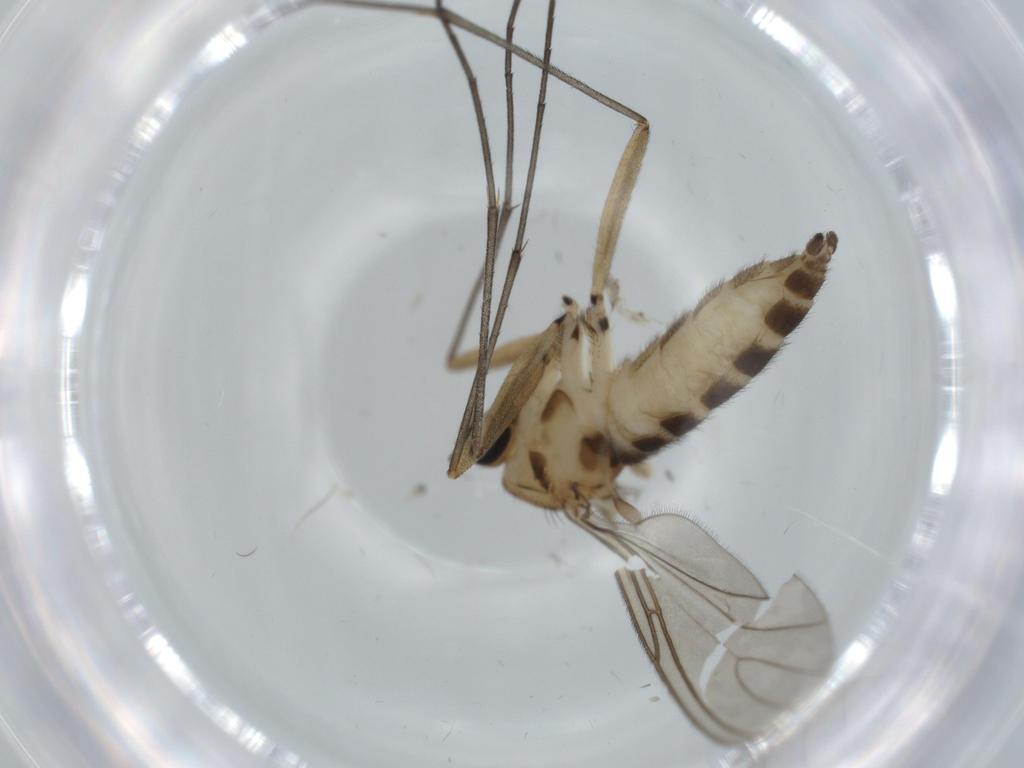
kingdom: Animalia
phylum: Arthropoda
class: Insecta
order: Diptera
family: Sciaridae
